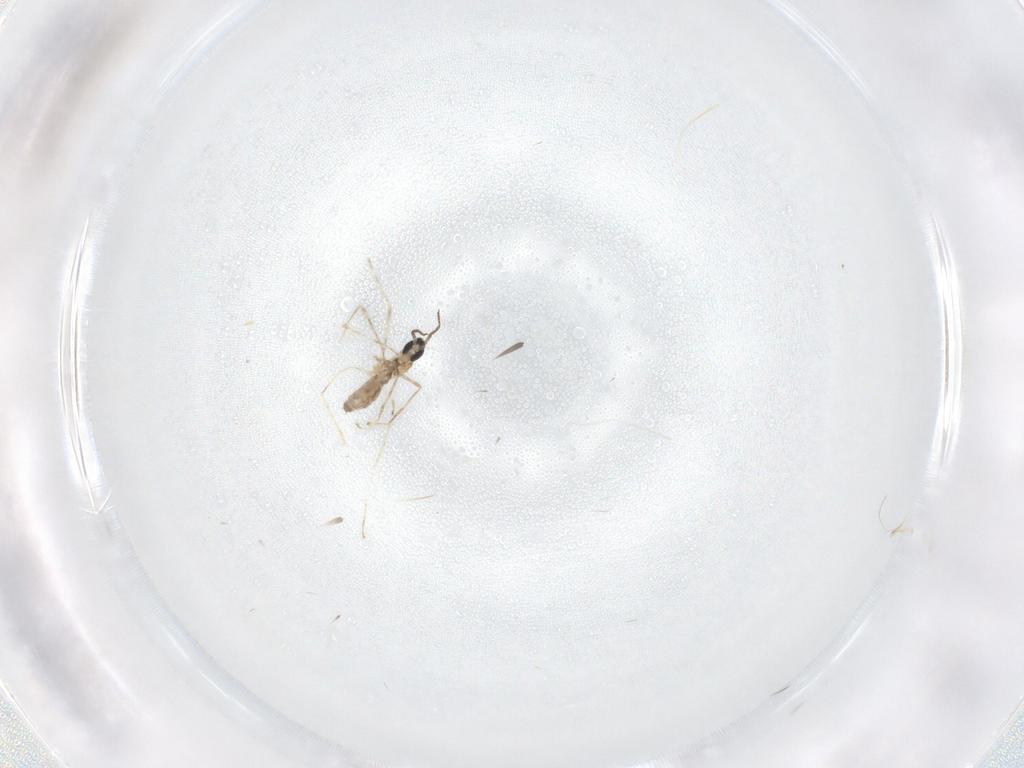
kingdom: Animalia
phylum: Arthropoda
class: Insecta
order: Diptera
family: Cecidomyiidae
